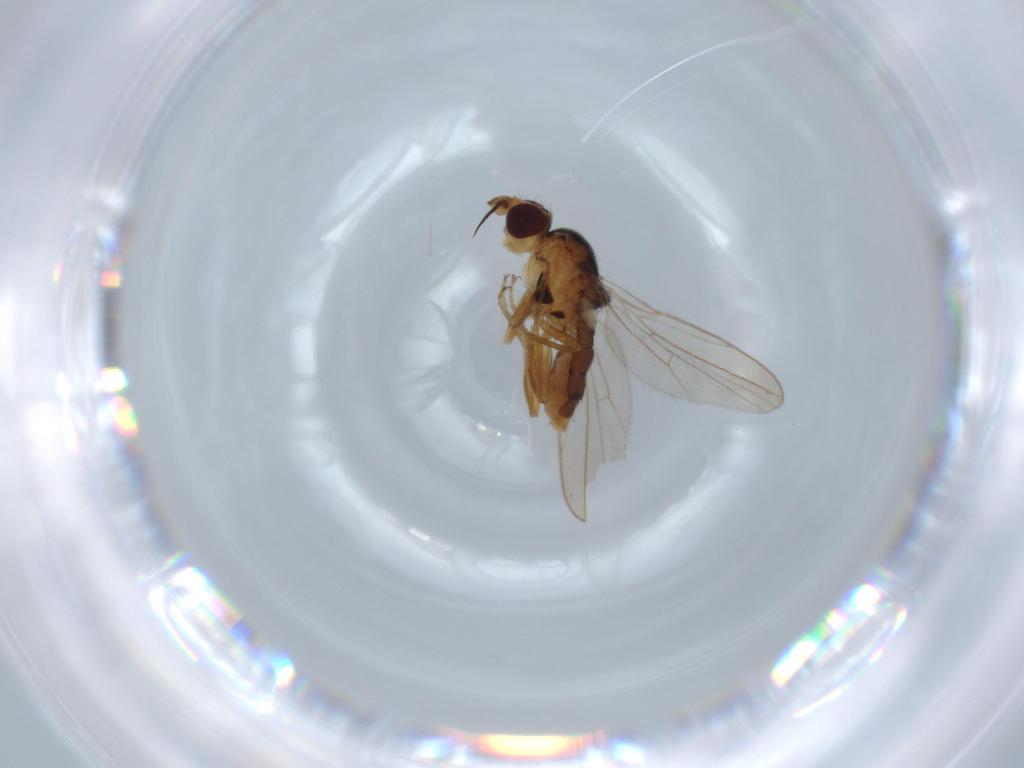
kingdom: Animalia
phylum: Arthropoda
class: Insecta
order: Diptera
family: Chloropidae
